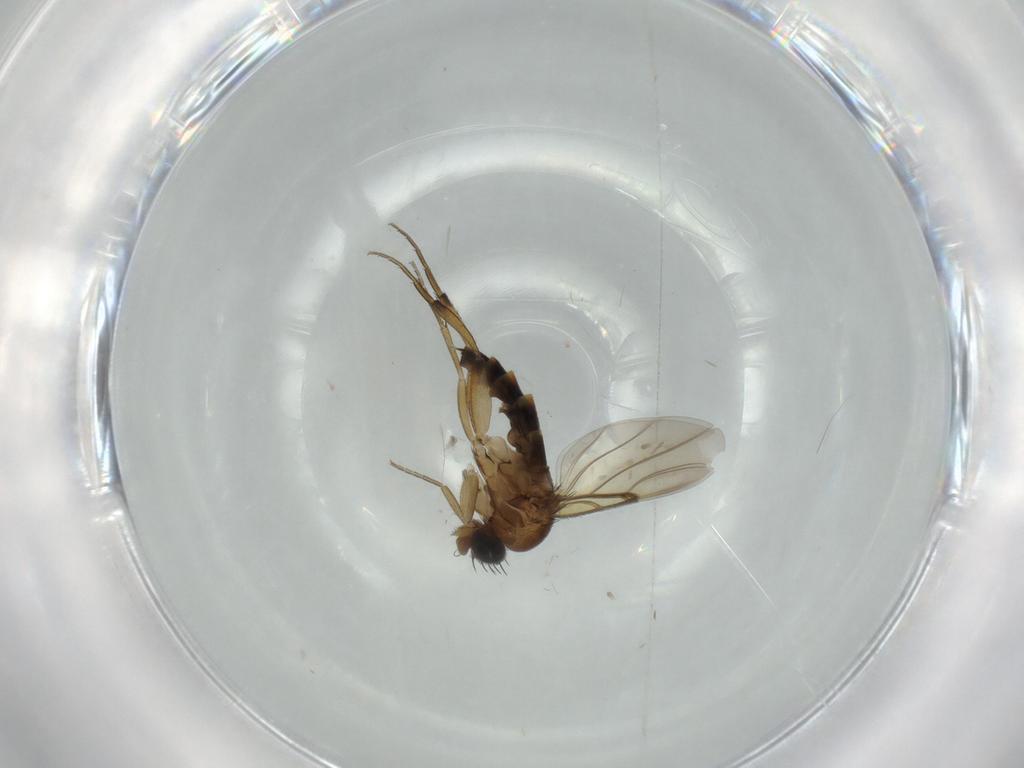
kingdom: Animalia
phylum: Arthropoda
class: Insecta
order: Diptera
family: Phoridae
